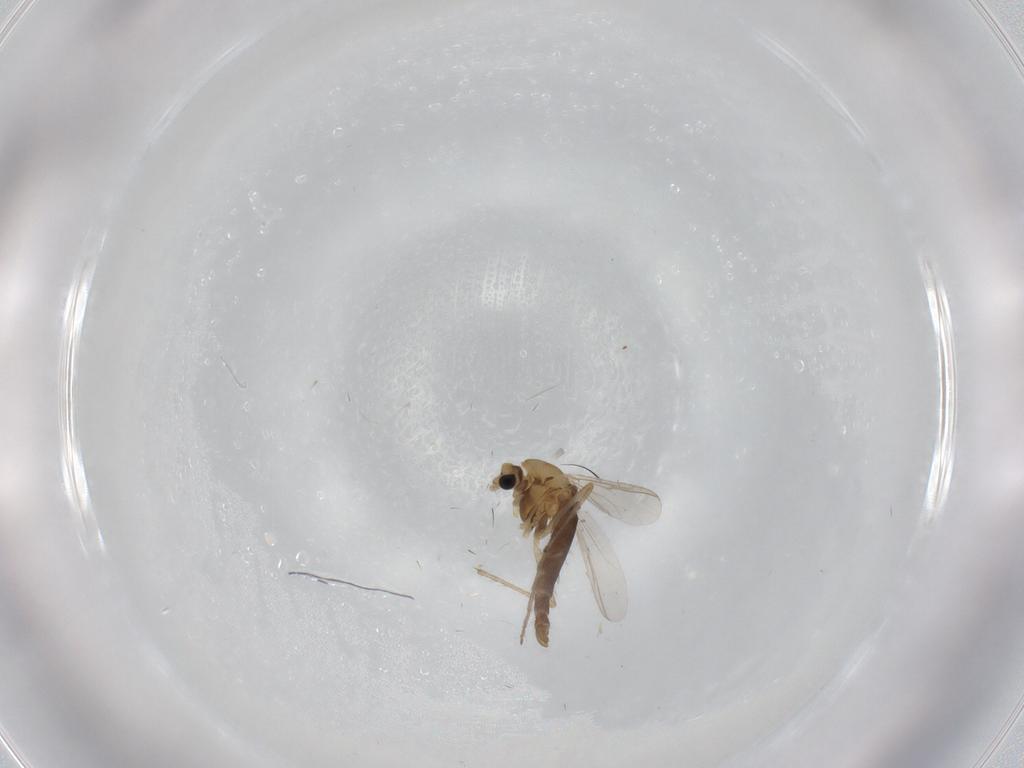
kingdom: Animalia
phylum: Arthropoda
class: Insecta
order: Diptera
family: Chironomidae
